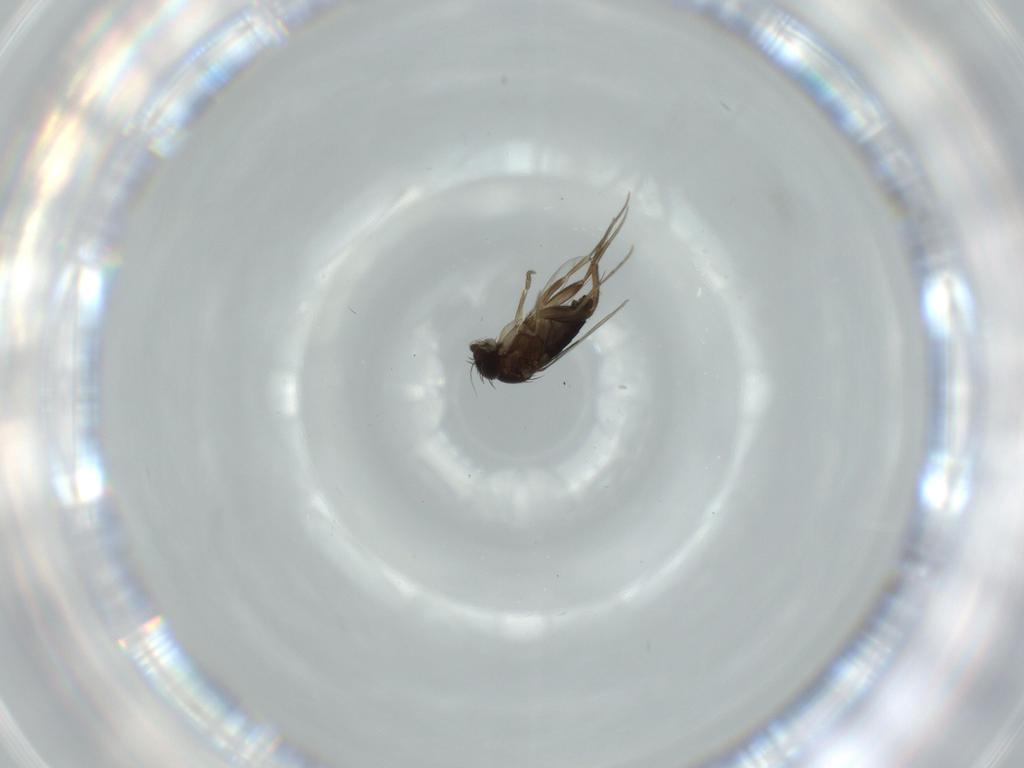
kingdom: Animalia
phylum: Arthropoda
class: Insecta
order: Diptera
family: Phoridae
